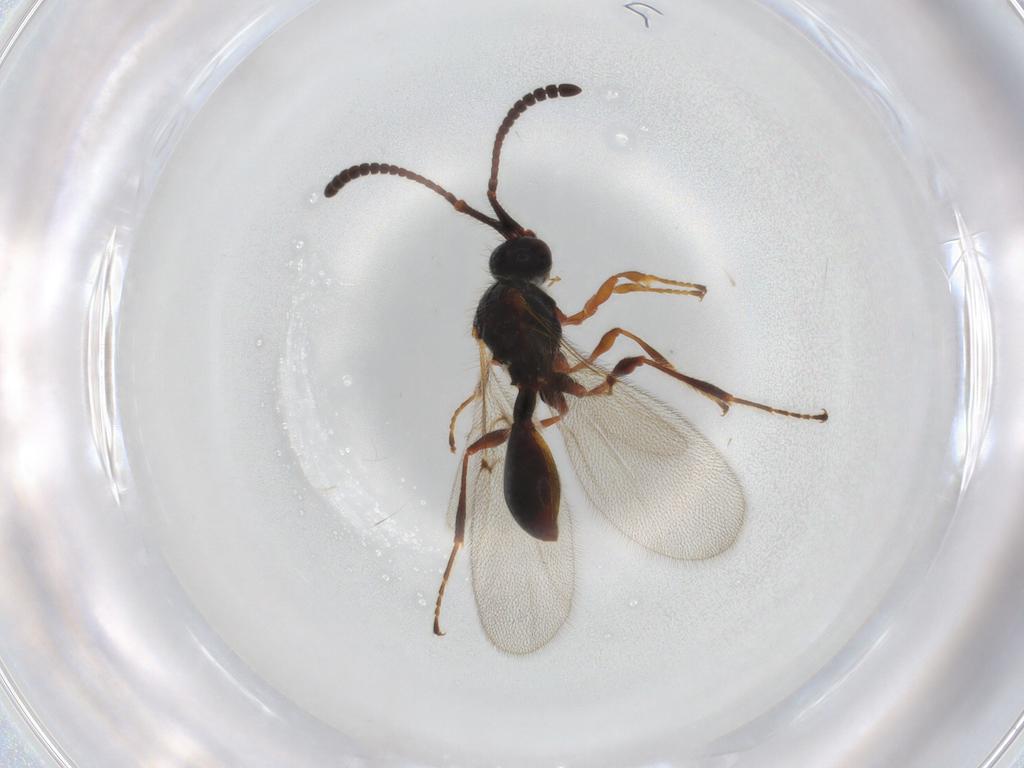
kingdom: Animalia
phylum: Arthropoda
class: Insecta
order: Hymenoptera
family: Diapriidae
